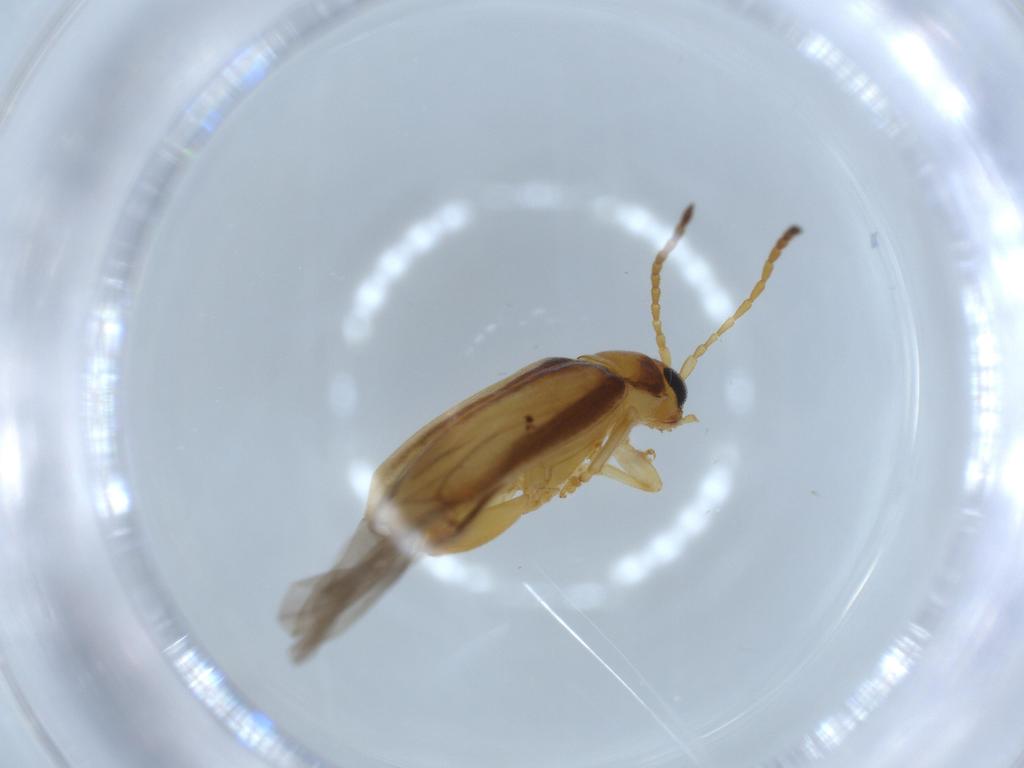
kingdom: Animalia
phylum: Arthropoda
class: Insecta
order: Coleoptera
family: Chrysomelidae
